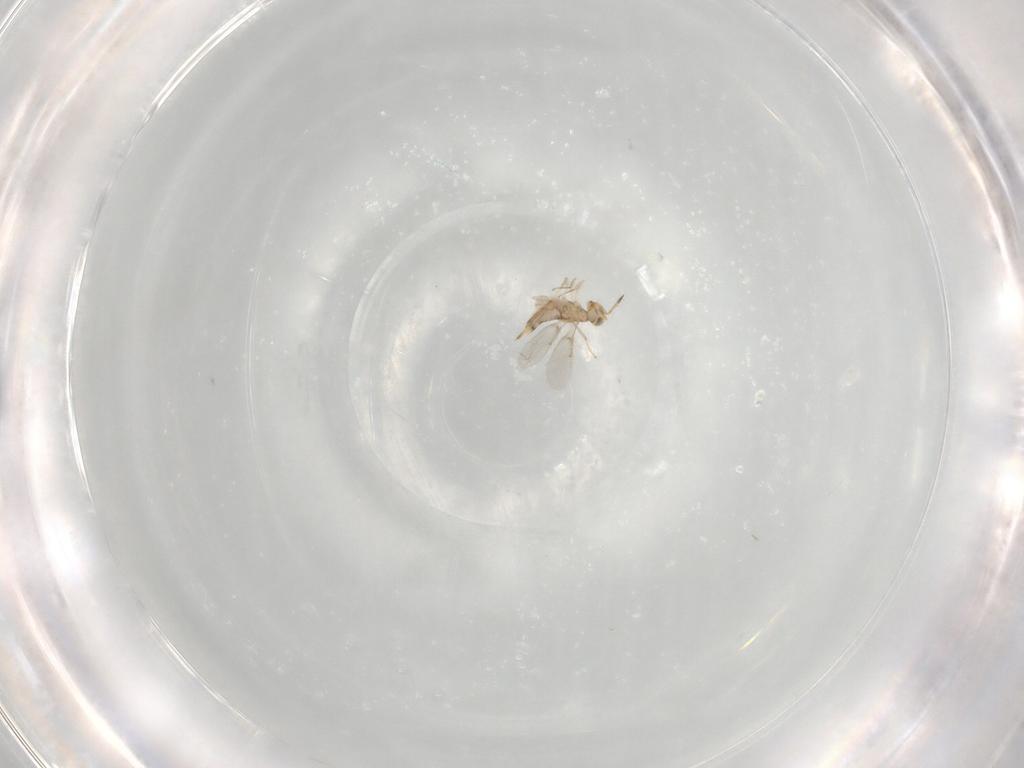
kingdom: Animalia
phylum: Arthropoda
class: Insecta
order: Hymenoptera
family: Aphelinidae
